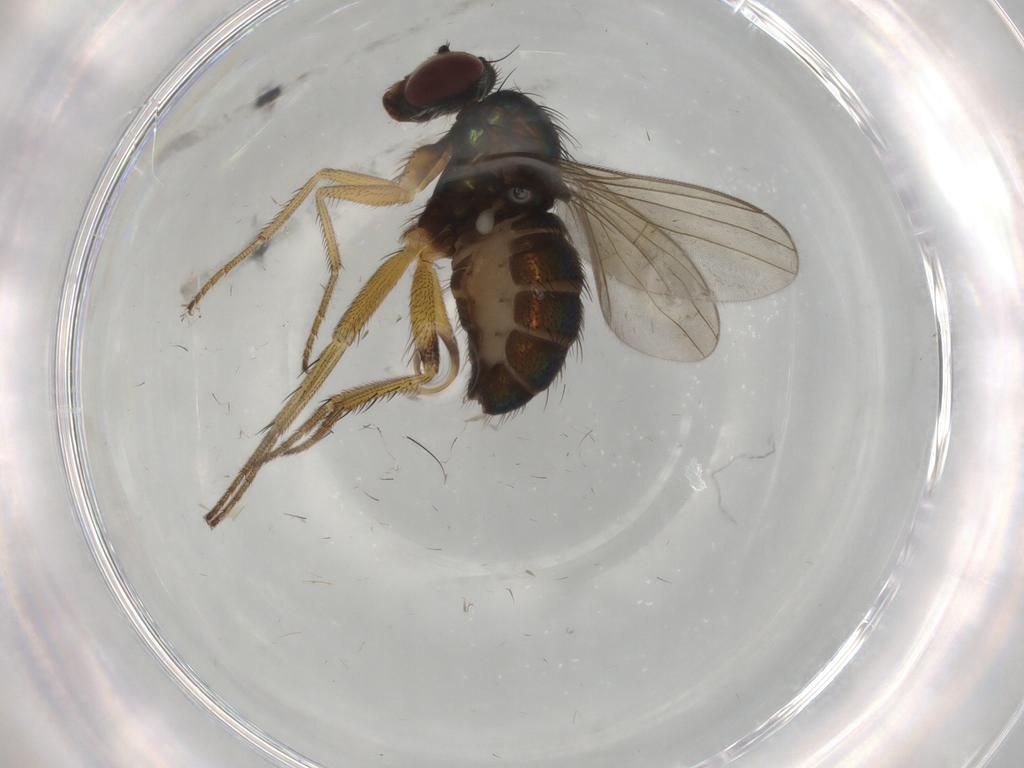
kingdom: Animalia
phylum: Arthropoda
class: Insecta
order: Diptera
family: Dolichopodidae
